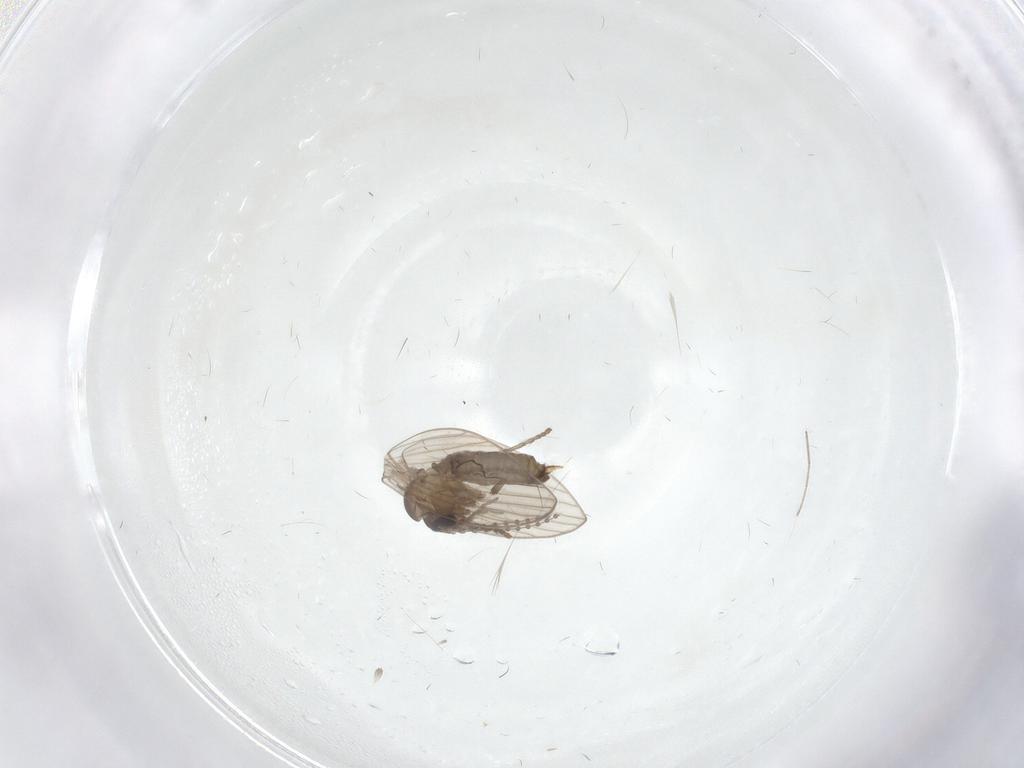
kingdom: Animalia
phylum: Arthropoda
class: Insecta
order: Diptera
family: Psychodidae
